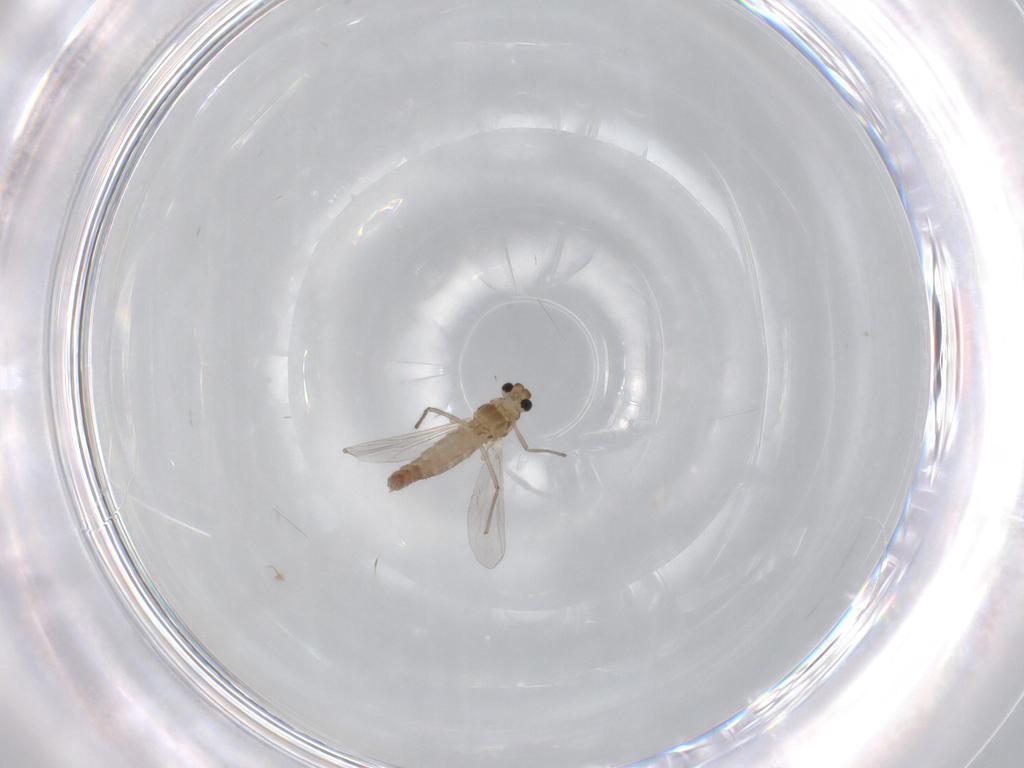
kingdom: Animalia
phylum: Arthropoda
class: Insecta
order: Diptera
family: Chironomidae
